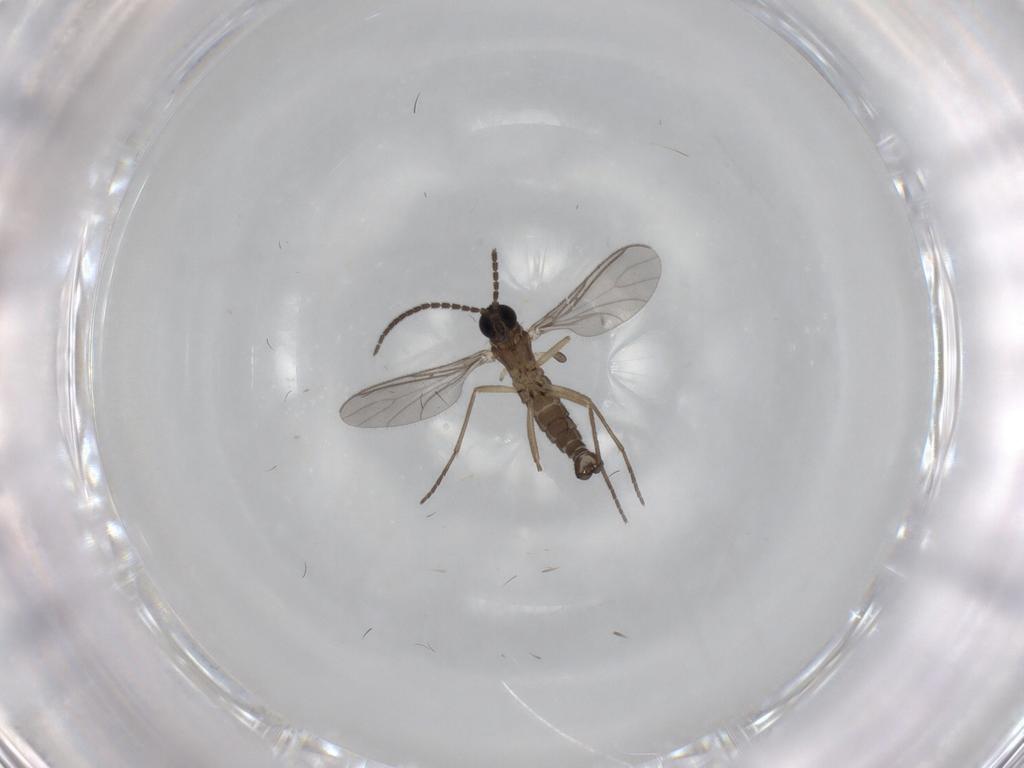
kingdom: Animalia
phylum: Arthropoda
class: Insecta
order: Diptera
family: Sciaridae
